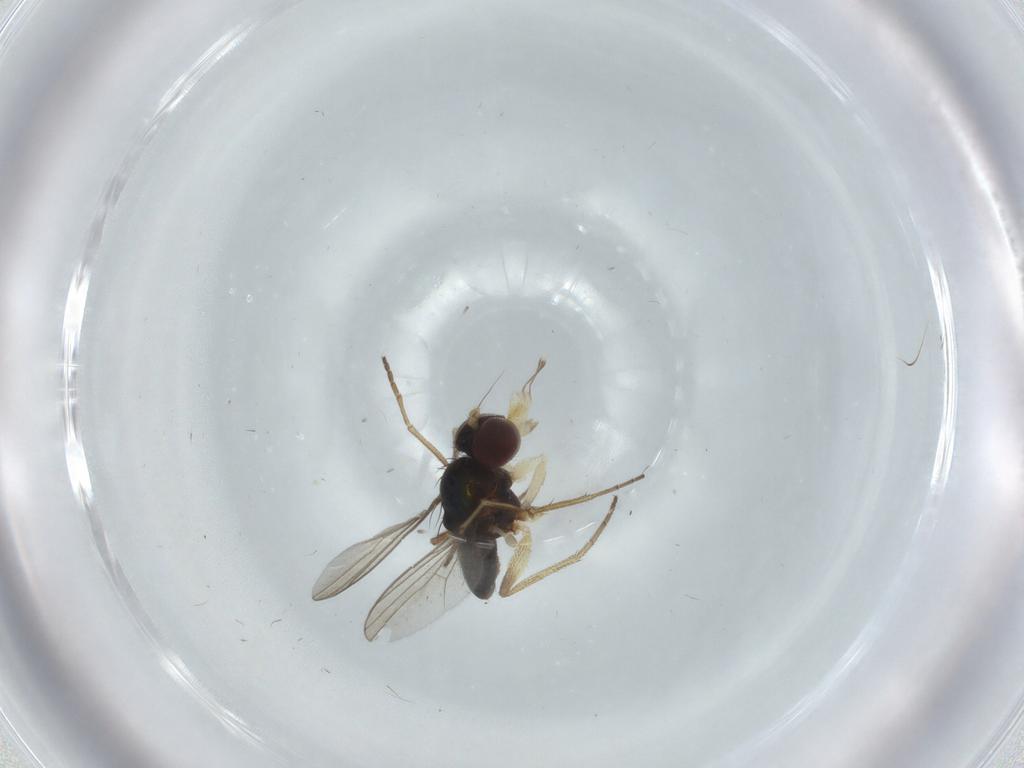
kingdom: Animalia
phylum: Arthropoda
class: Insecta
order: Diptera
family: Dolichopodidae
